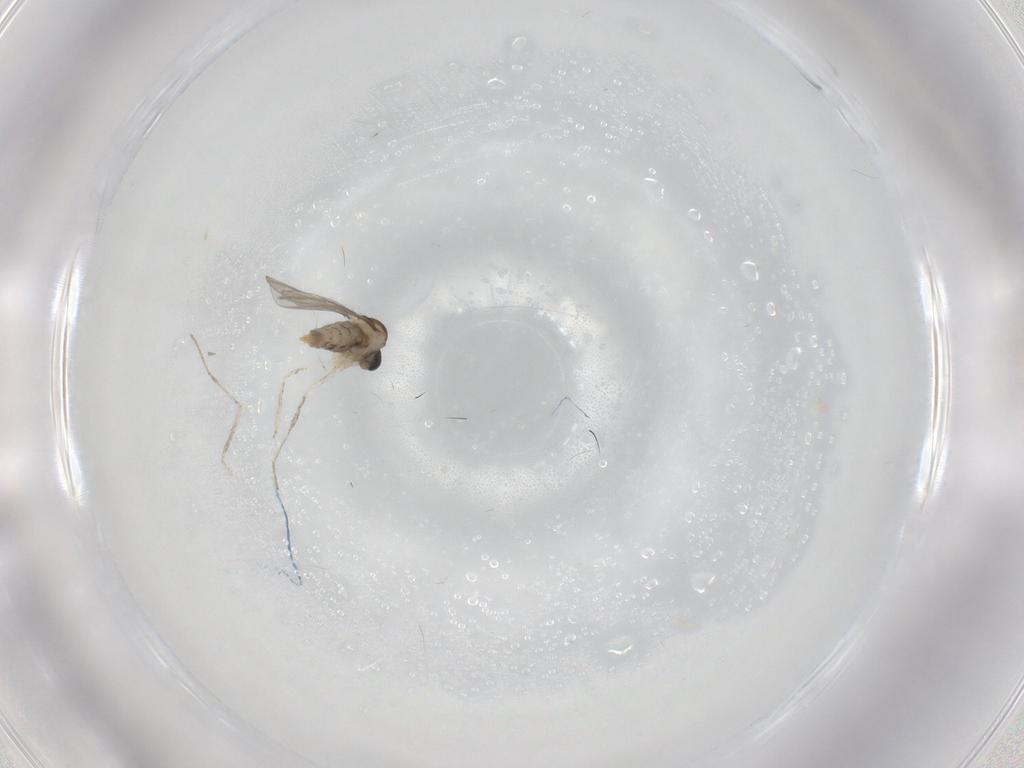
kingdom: Animalia
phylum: Arthropoda
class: Insecta
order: Diptera
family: Cecidomyiidae
